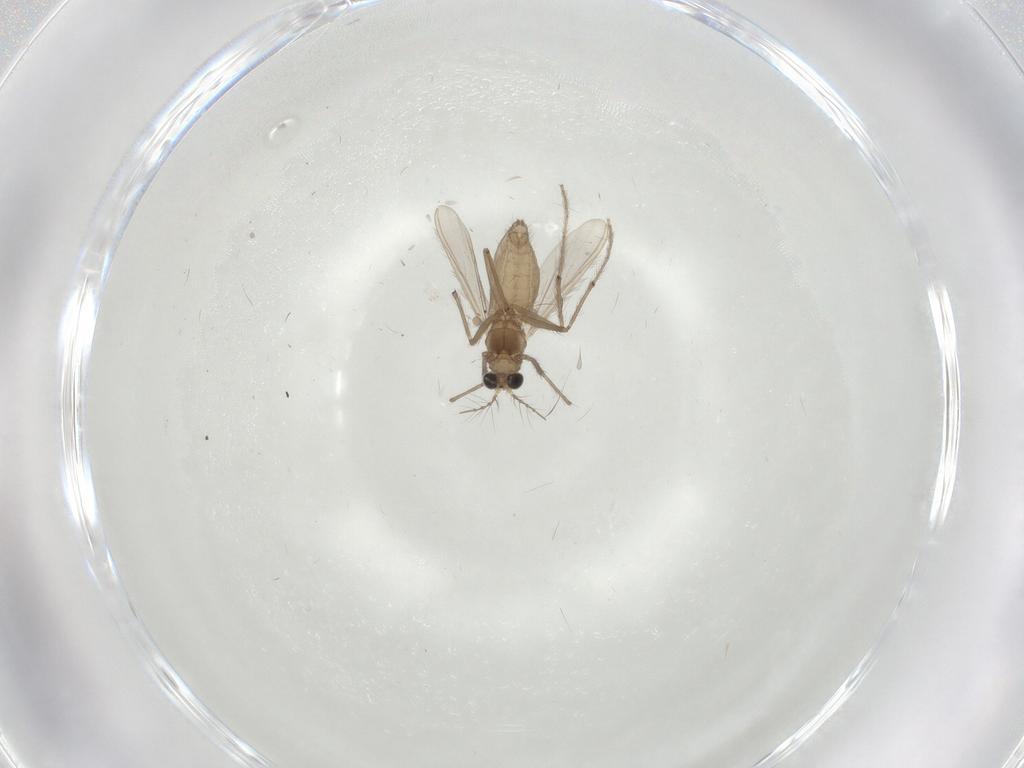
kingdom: Animalia
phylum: Arthropoda
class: Insecta
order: Diptera
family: Chironomidae
